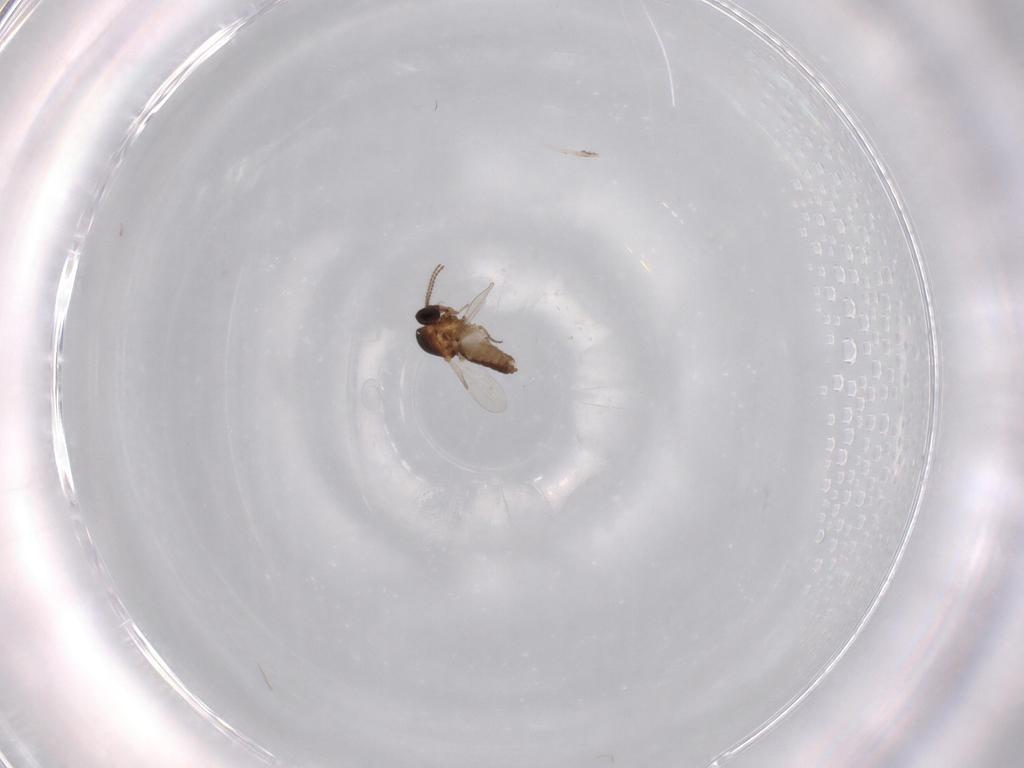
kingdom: Animalia
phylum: Arthropoda
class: Insecta
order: Diptera
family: Ceratopogonidae
